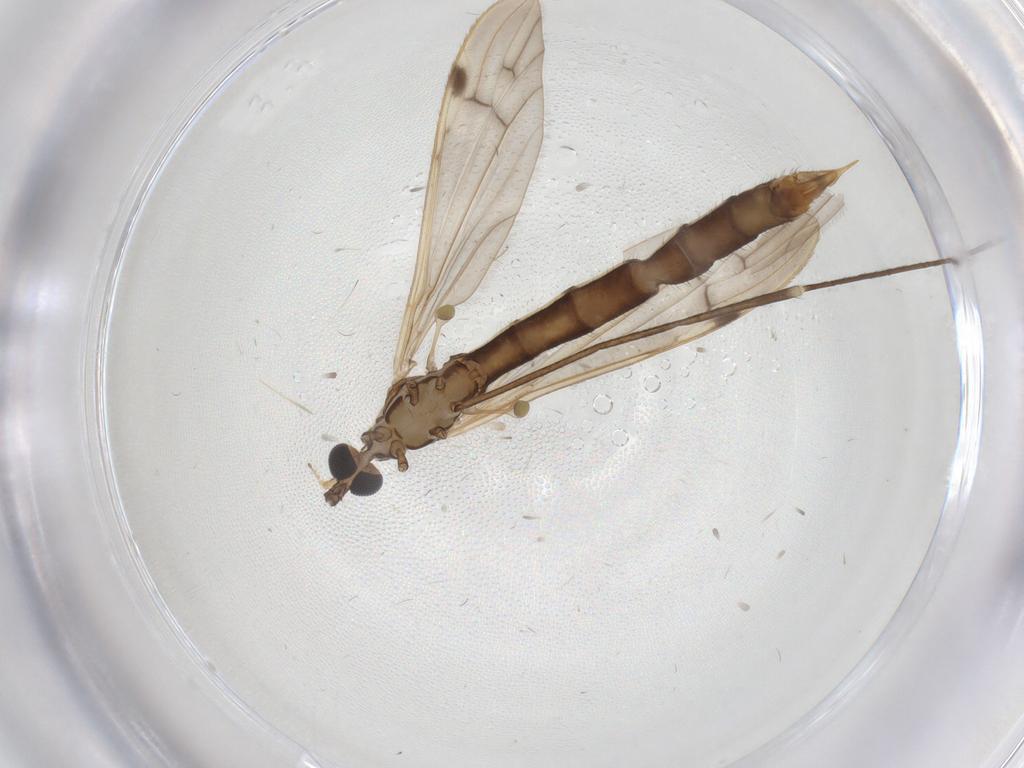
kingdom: Animalia
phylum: Arthropoda
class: Insecta
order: Diptera
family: Limoniidae
